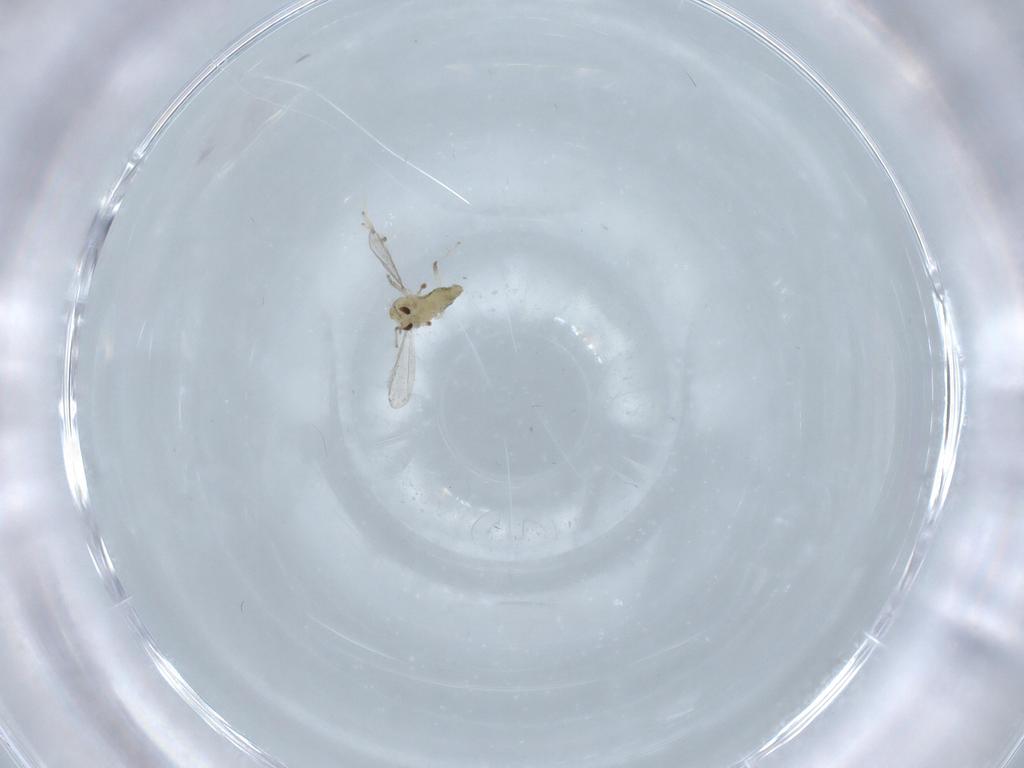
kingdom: Animalia
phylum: Arthropoda
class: Insecta
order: Diptera
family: Chironomidae
